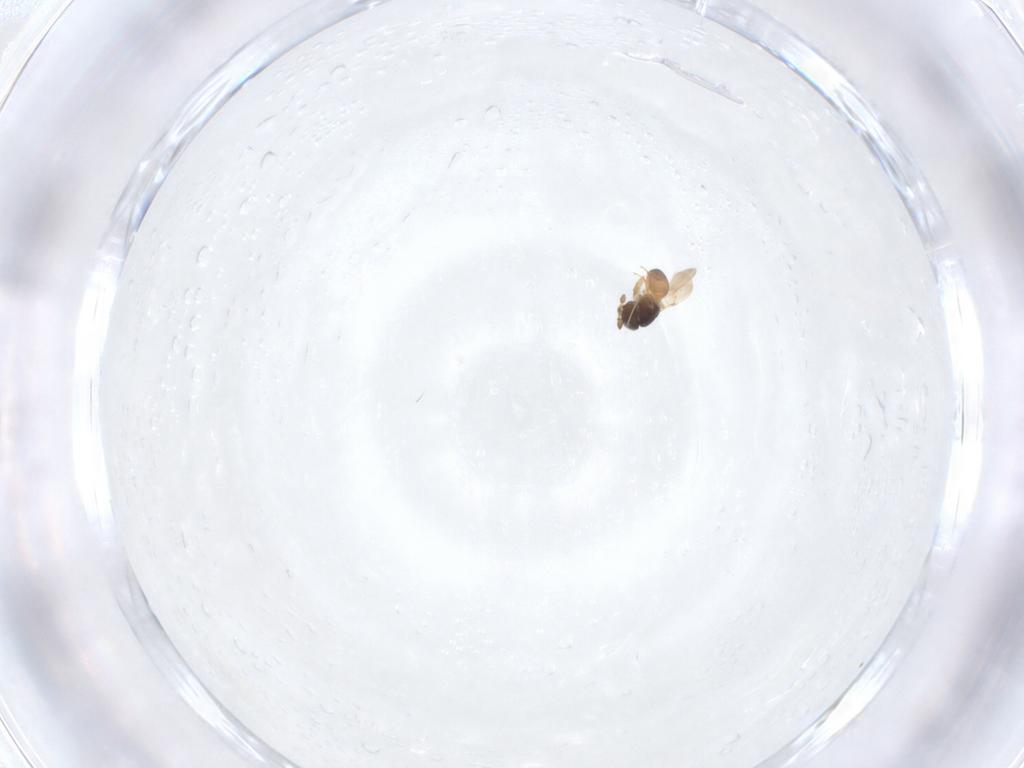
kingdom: Animalia
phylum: Arthropoda
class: Insecta
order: Hymenoptera
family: Scelionidae
